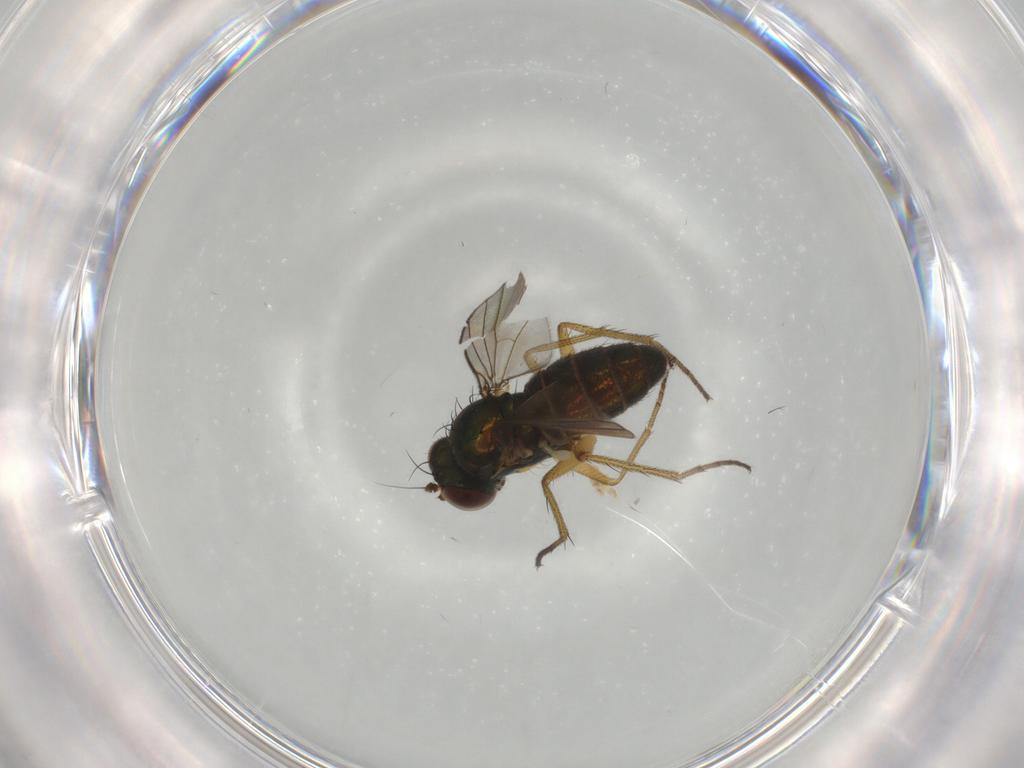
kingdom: Animalia
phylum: Arthropoda
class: Insecta
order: Diptera
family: Dolichopodidae
